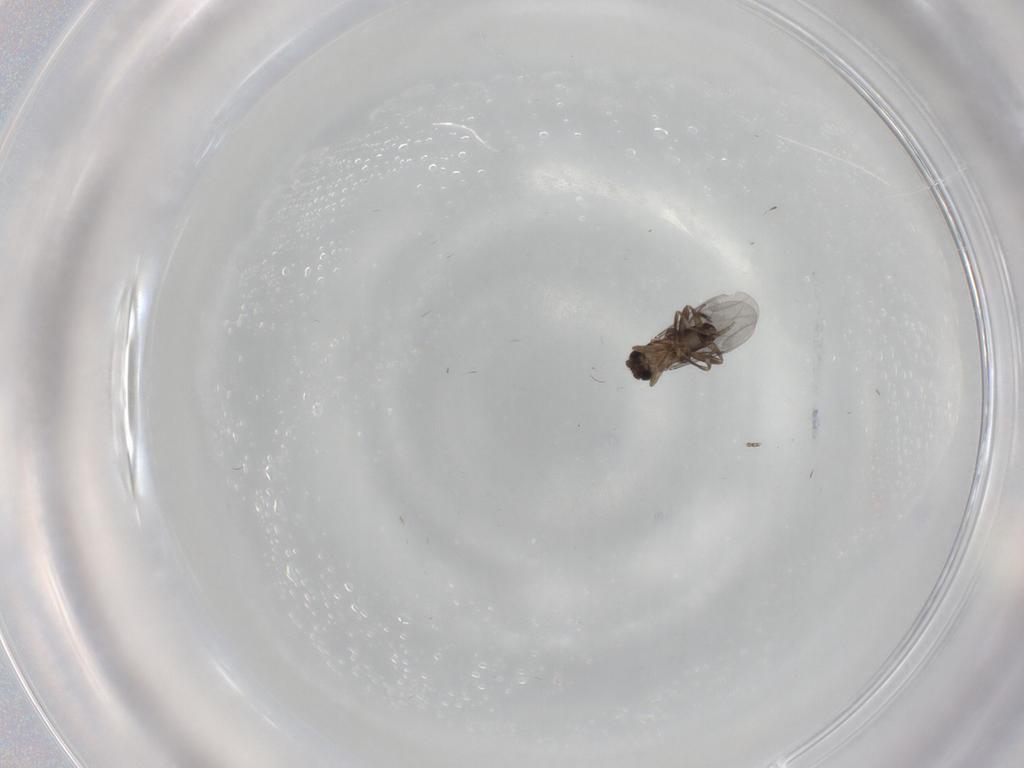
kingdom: Animalia
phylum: Arthropoda
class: Insecta
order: Diptera
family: Tipulidae
